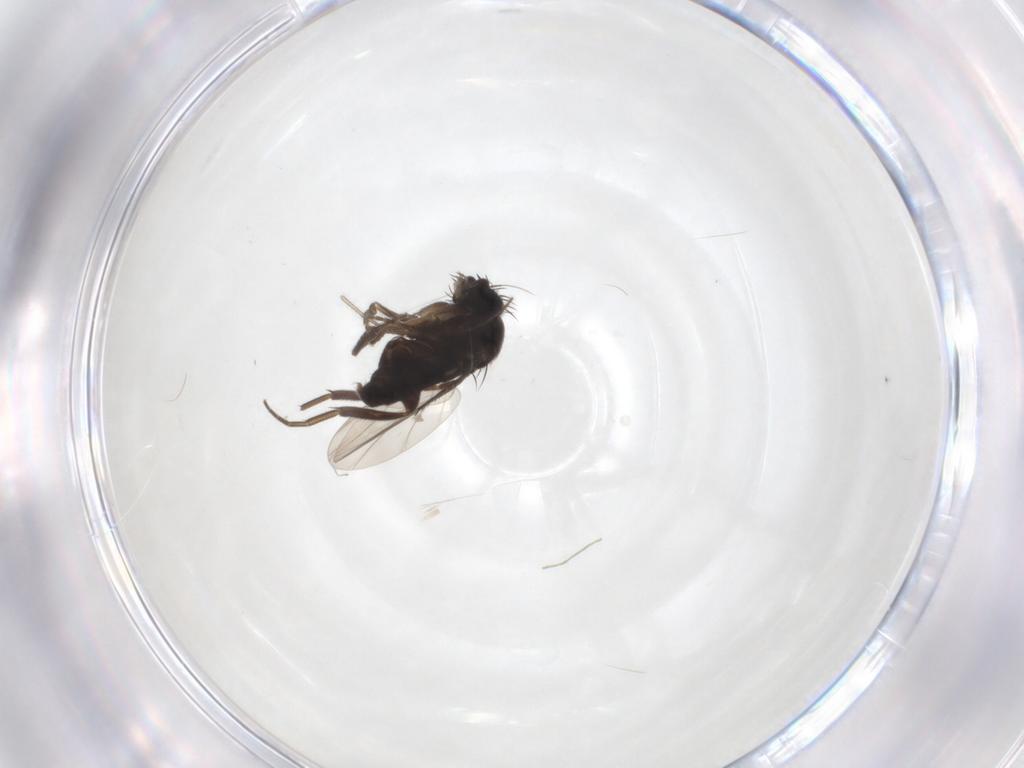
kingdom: Animalia
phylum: Arthropoda
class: Insecta
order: Diptera
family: Phoridae
